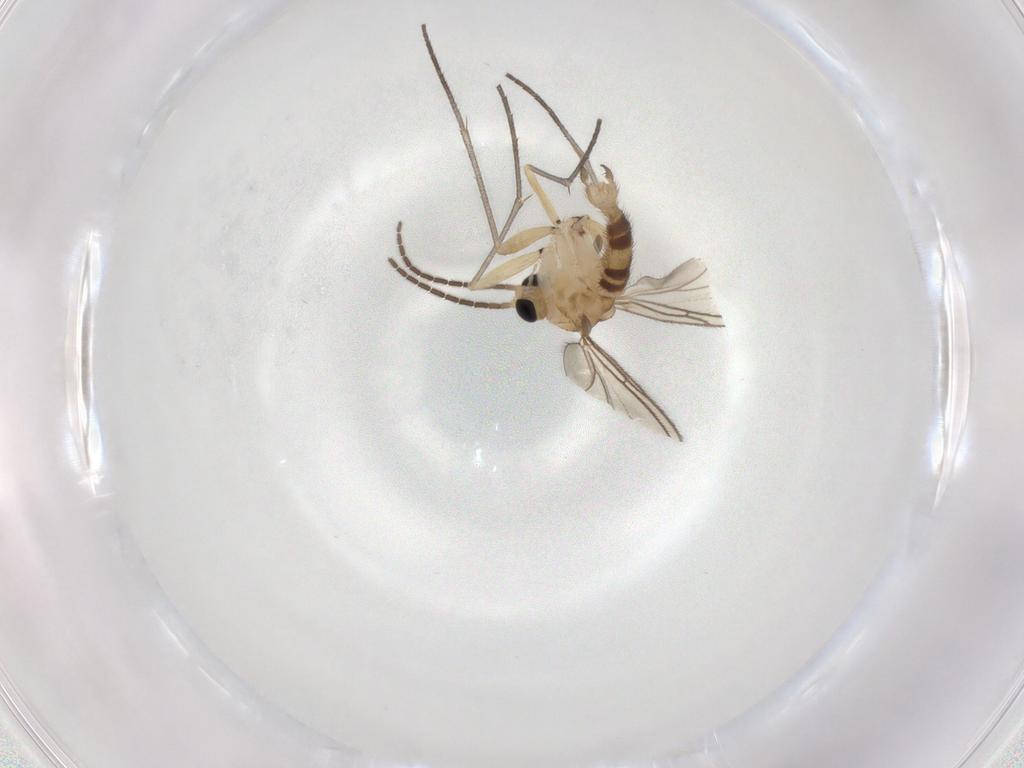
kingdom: Animalia
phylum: Arthropoda
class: Insecta
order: Diptera
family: Sciaridae
